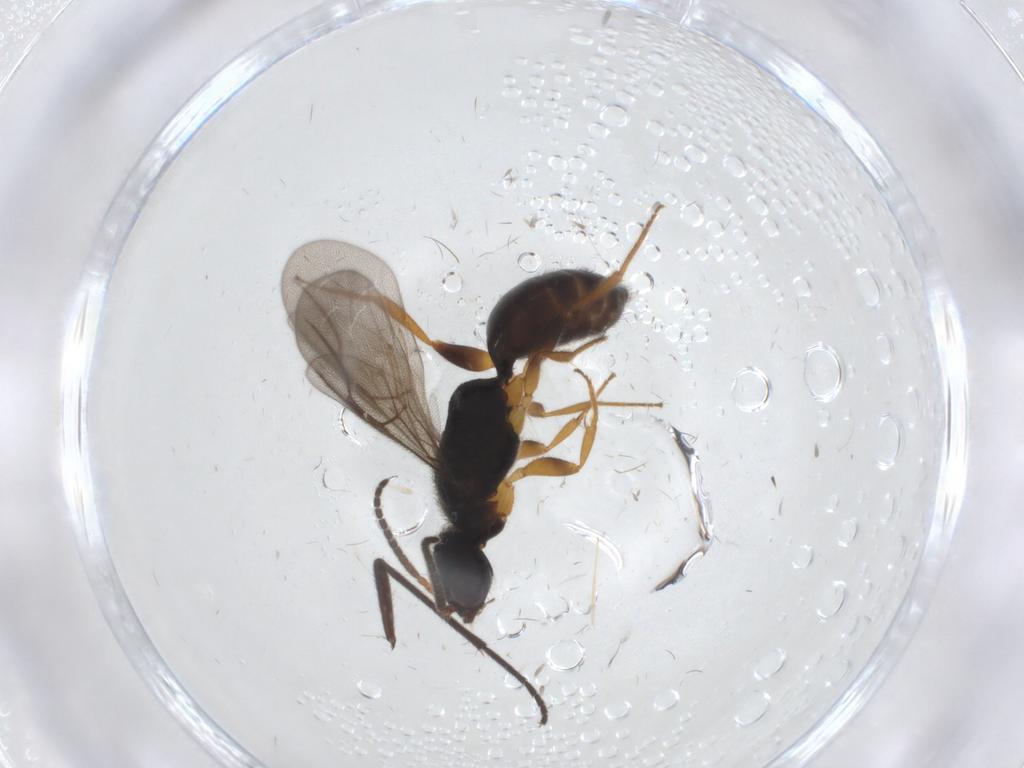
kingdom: Animalia
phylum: Arthropoda
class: Insecta
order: Hymenoptera
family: Bethylidae
